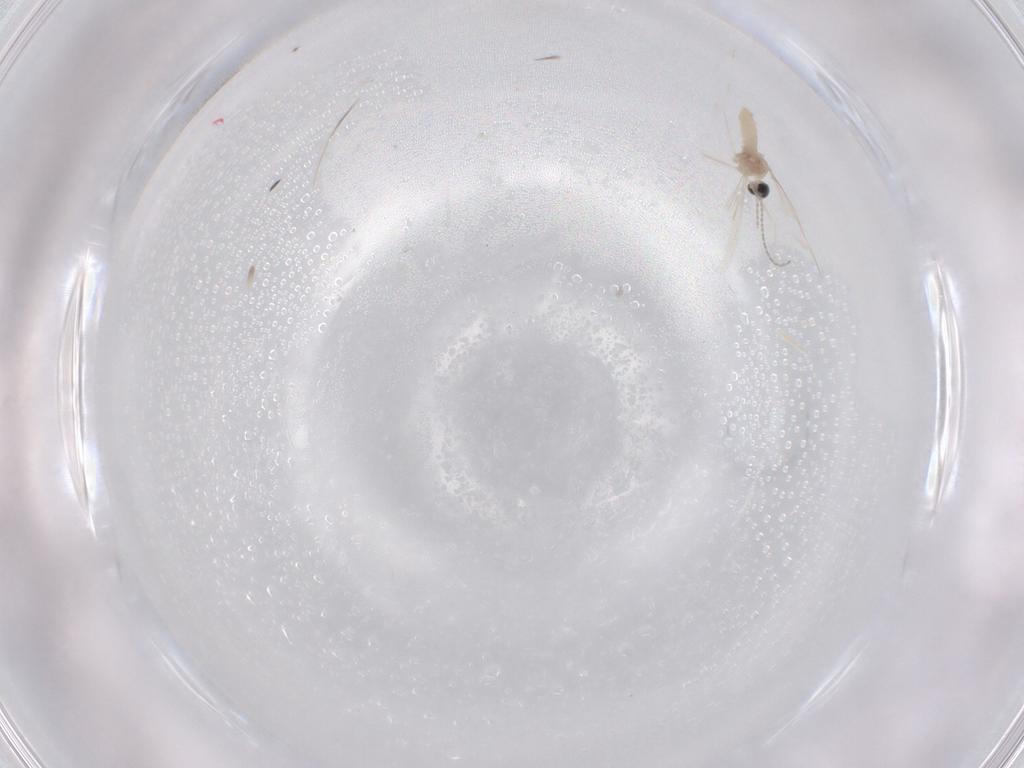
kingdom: Animalia
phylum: Arthropoda
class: Insecta
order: Diptera
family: Cecidomyiidae
